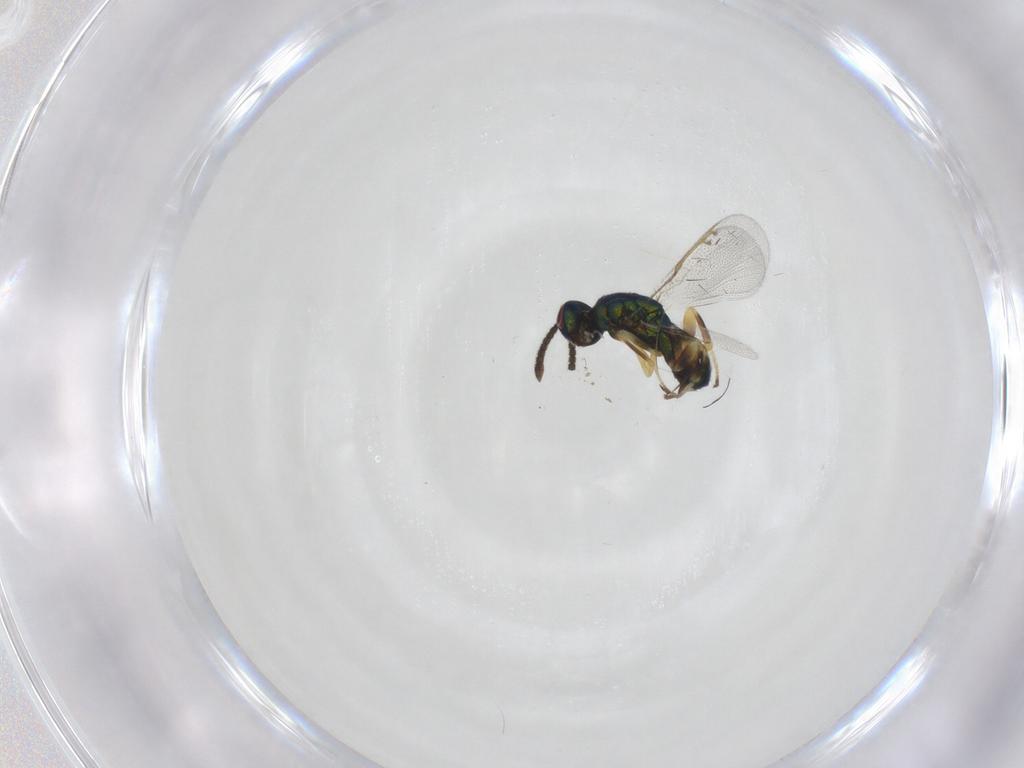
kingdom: Animalia
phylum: Arthropoda
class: Insecta
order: Hymenoptera
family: Torymidae
